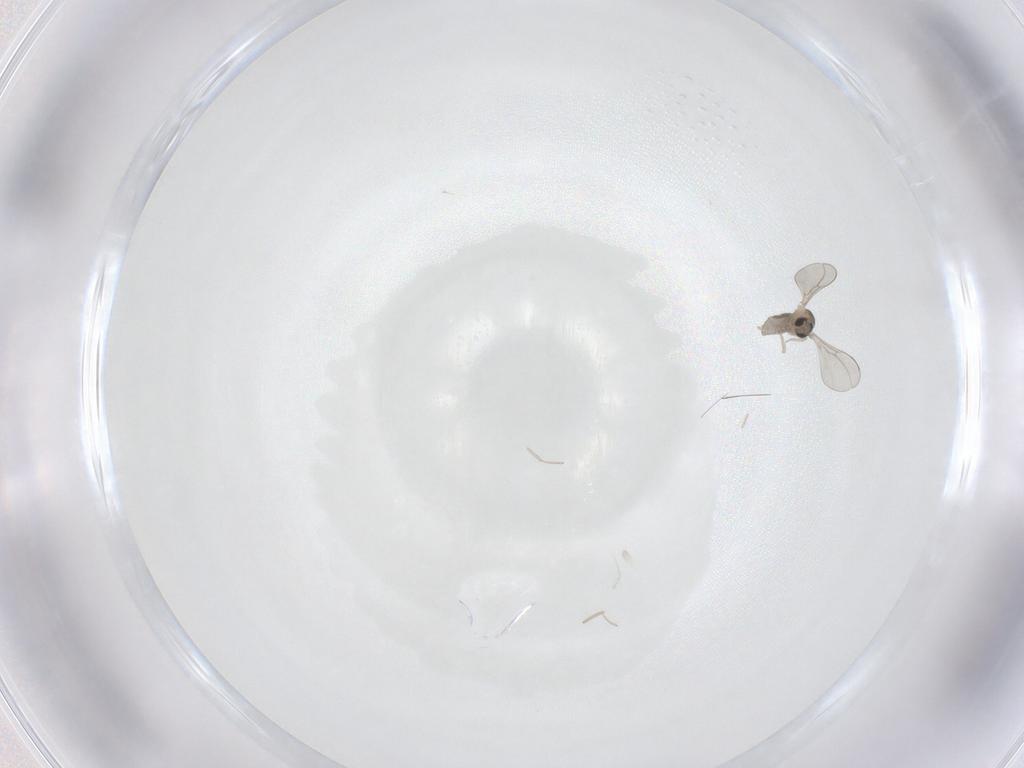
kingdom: Animalia
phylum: Arthropoda
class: Insecta
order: Diptera
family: Cecidomyiidae
